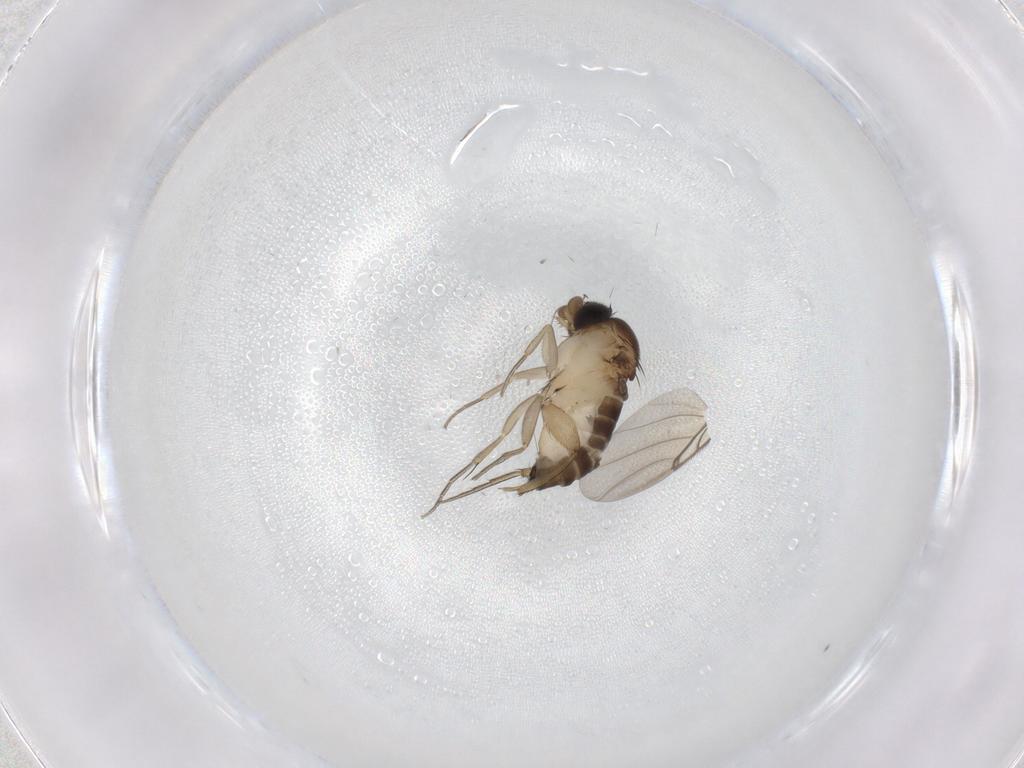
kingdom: Animalia
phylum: Arthropoda
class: Insecta
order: Diptera
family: Phoridae
